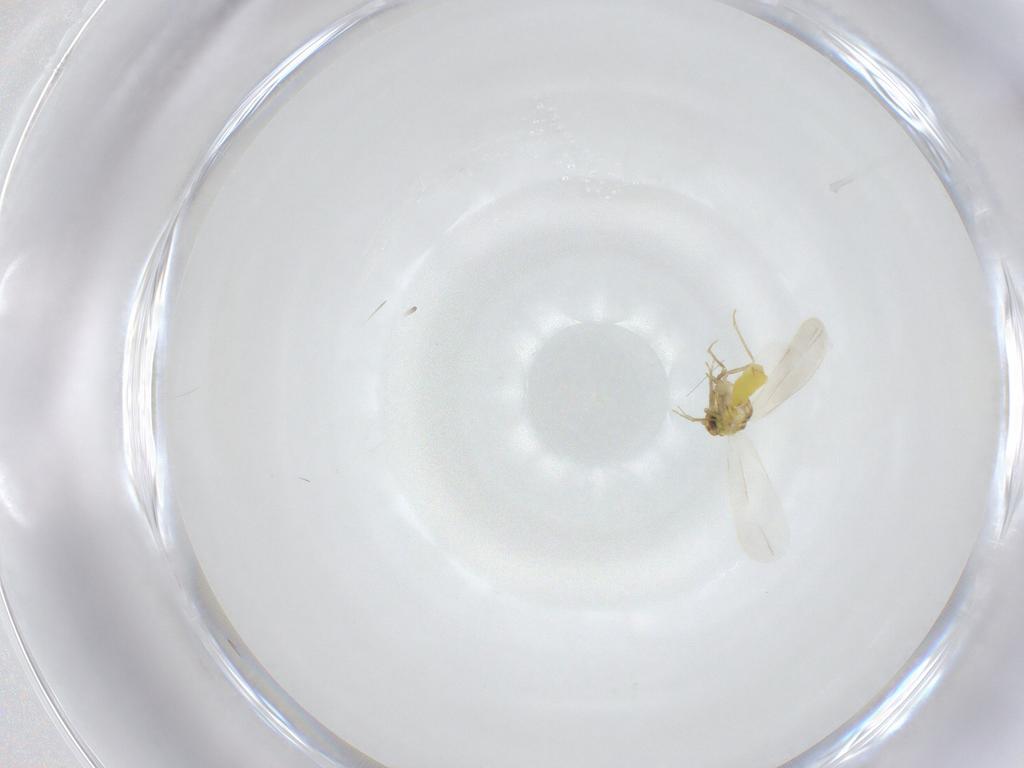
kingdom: Animalia
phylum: Arthropoda
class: Insecta
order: Hemiptera
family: Aleyrodidae
